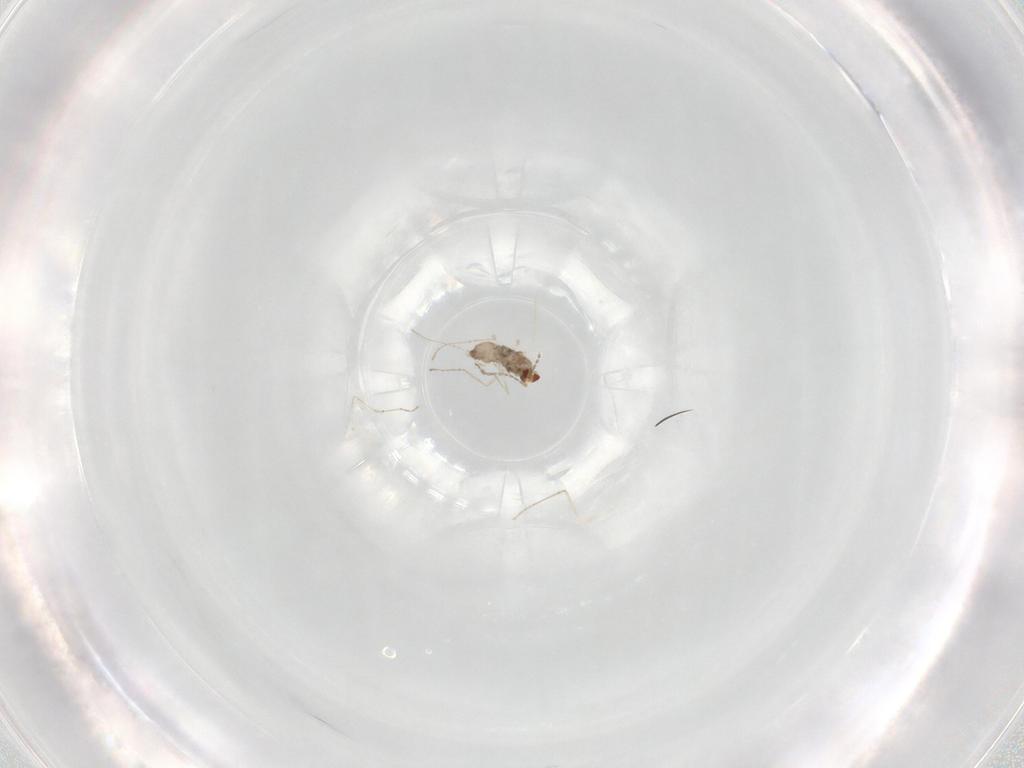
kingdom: Animalia
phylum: Arthropoda
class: Insecta
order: Diptera
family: Cecidomyiidae
